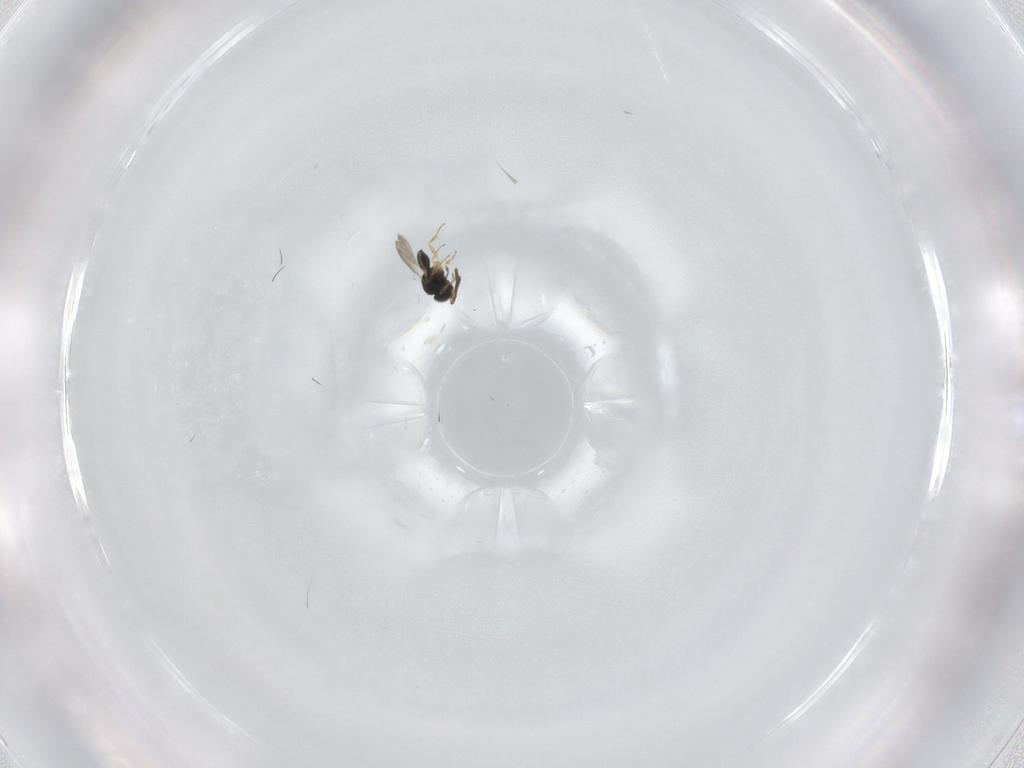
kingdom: Animalia
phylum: Arthropoda
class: Insecta
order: Hymenoptera
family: Scelionidae
